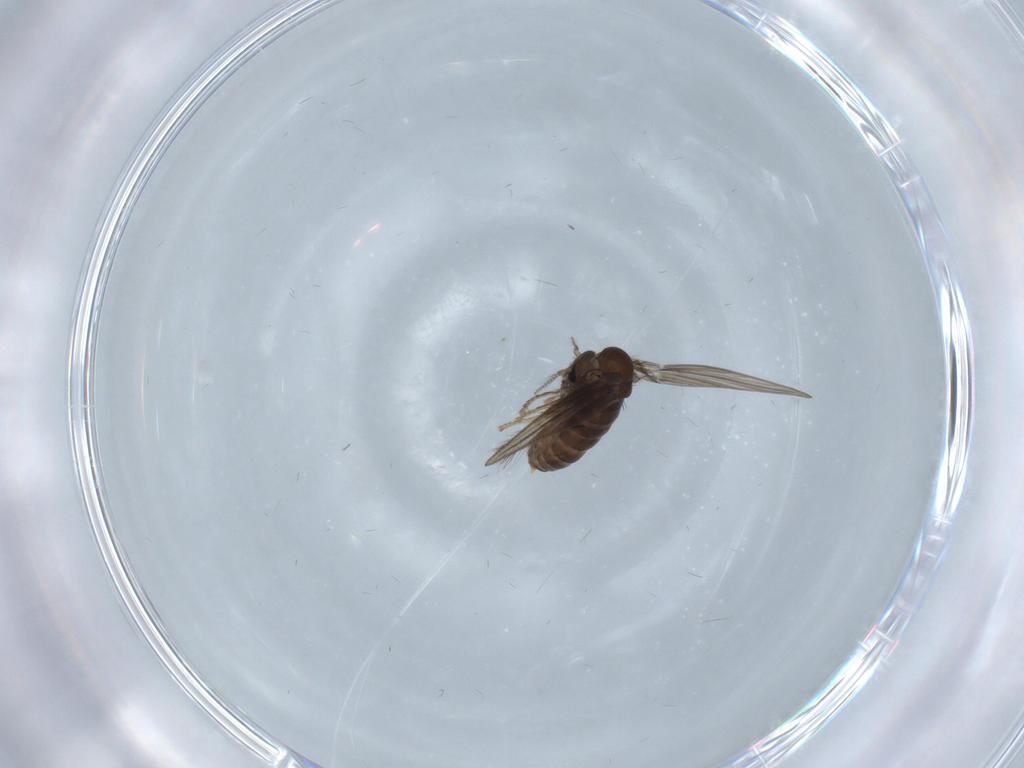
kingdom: Animalia
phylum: Arthropoda
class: Insecta
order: Diptera
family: Psychodidae
